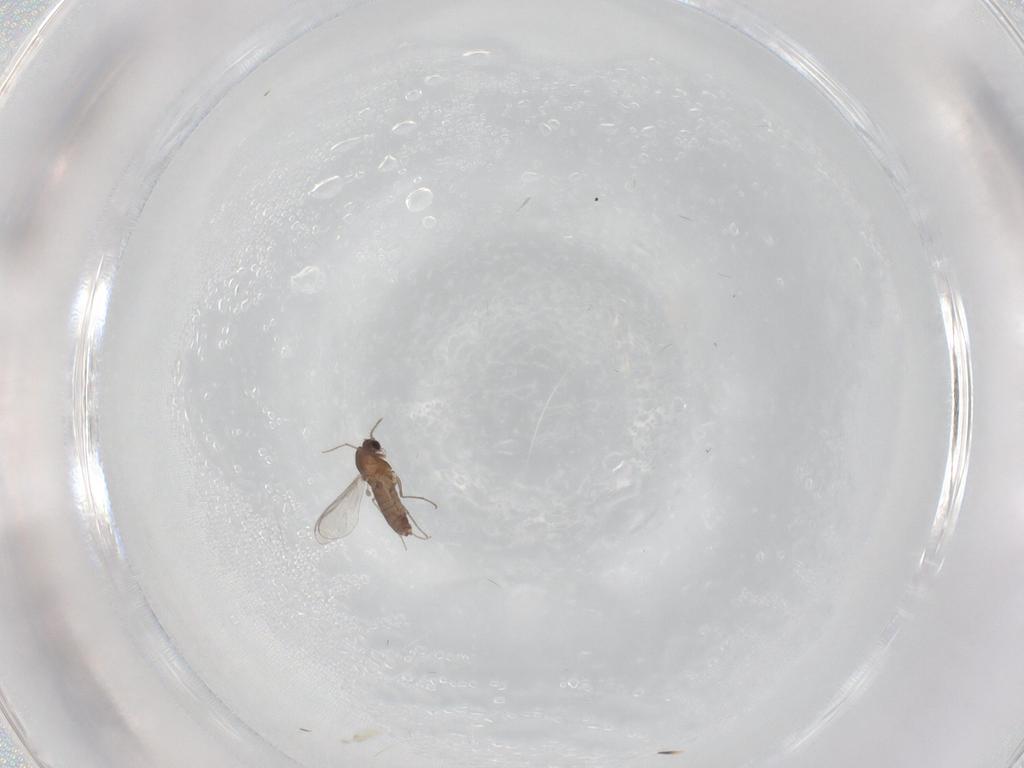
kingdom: Animalia
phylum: Arthropoda
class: Insecta
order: Diptera
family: Chironomidae
